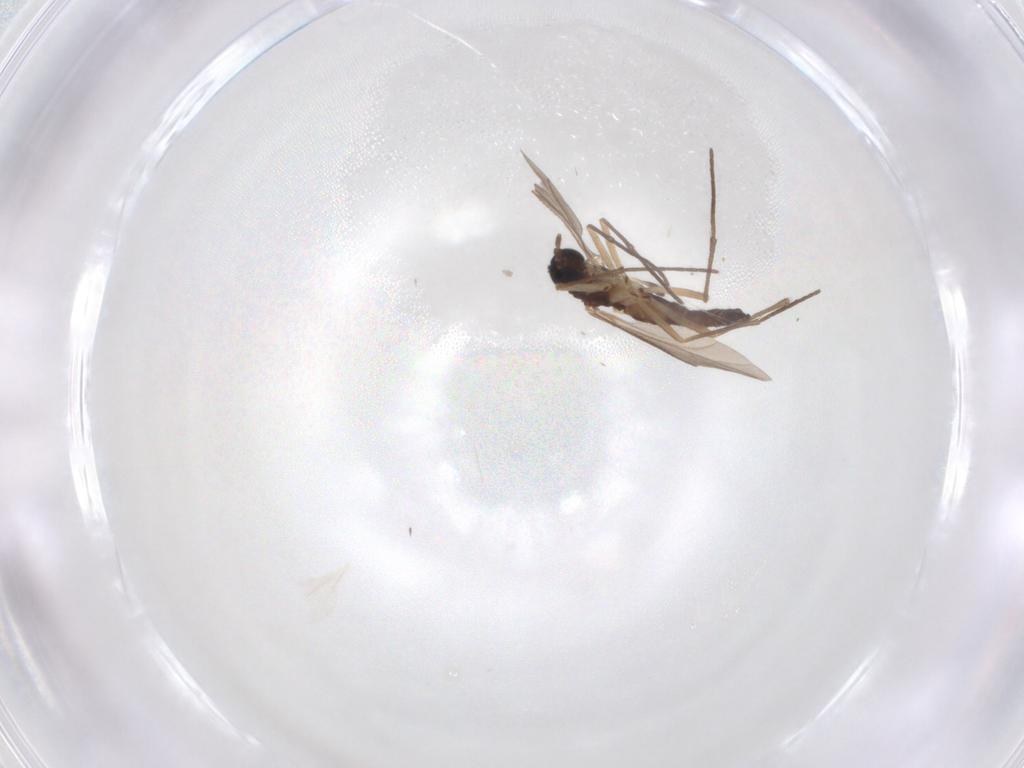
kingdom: Animalia
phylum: Arthropoda
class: Insecta
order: Diptera
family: Sciaridae
